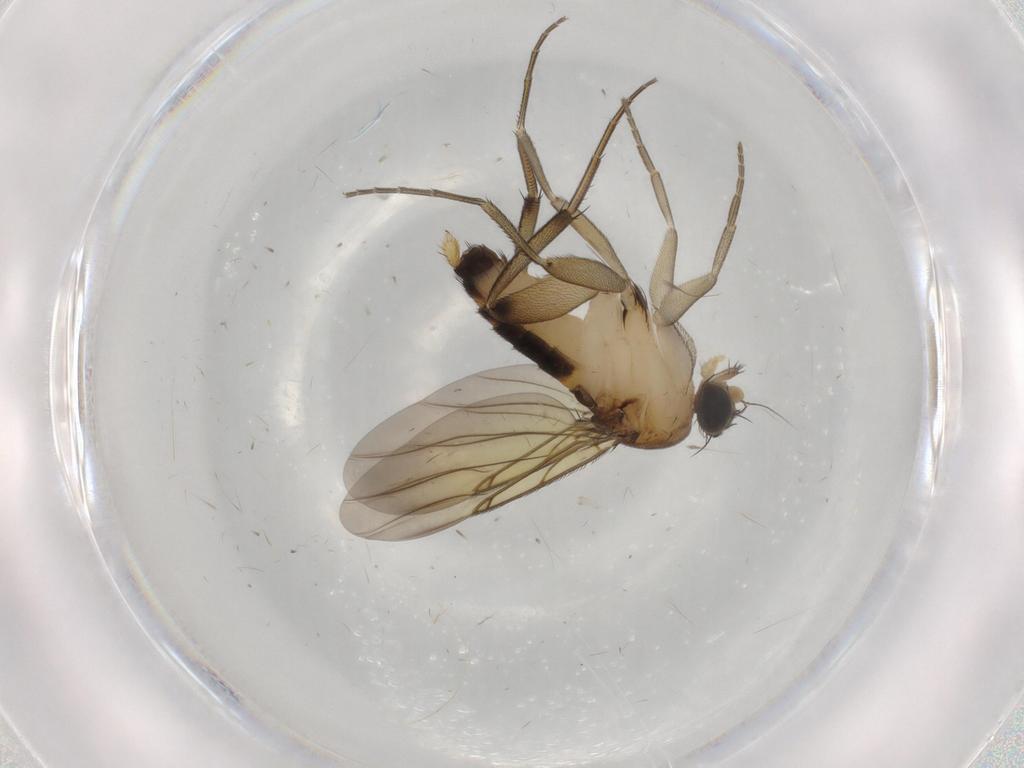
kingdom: Animalia
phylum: Arthropoda
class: Insecta
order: Diptera
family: Phoridae
